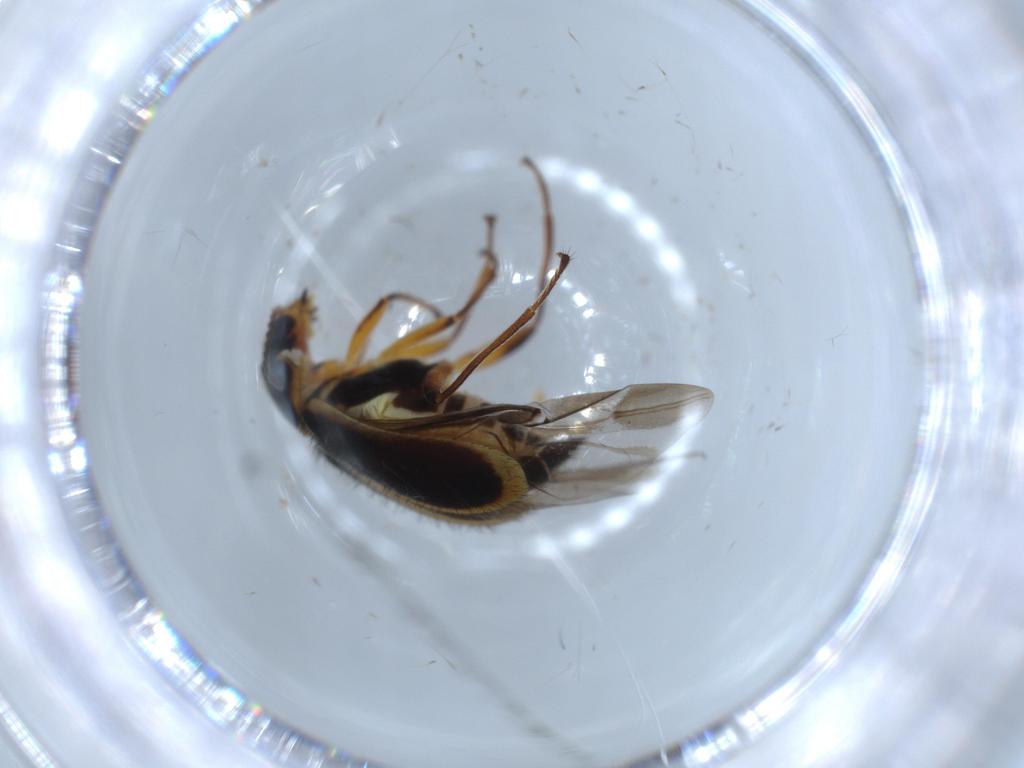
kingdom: Animalia
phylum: Arthropoda
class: Insecta
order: Coleoptera
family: Melyridae
